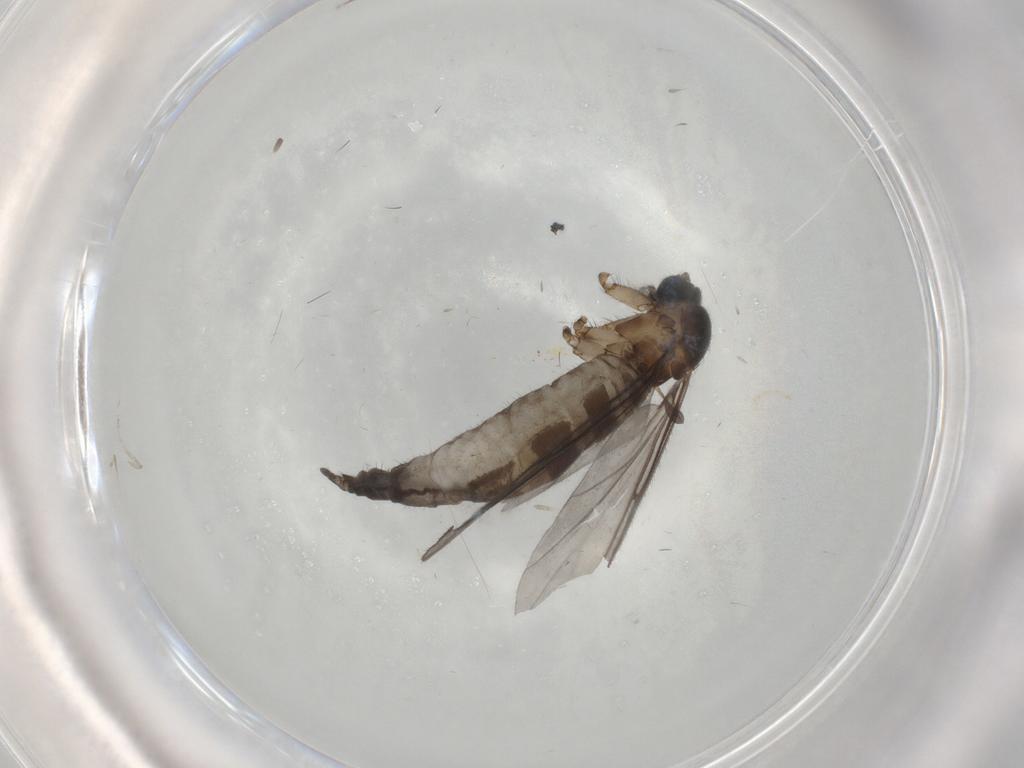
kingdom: Animalia
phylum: Arthropoda
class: Insecta
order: Diptera
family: Sciaridae
